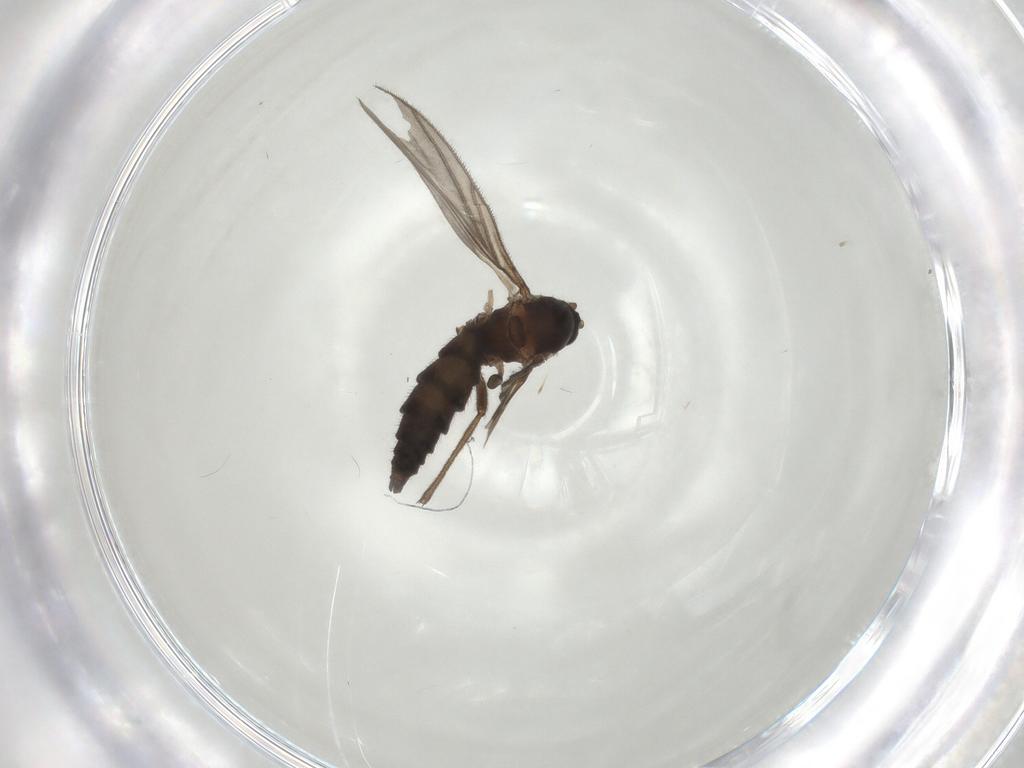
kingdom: Animalia
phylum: Arthropoda
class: Insecta
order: Diptera
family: Sciaridae
